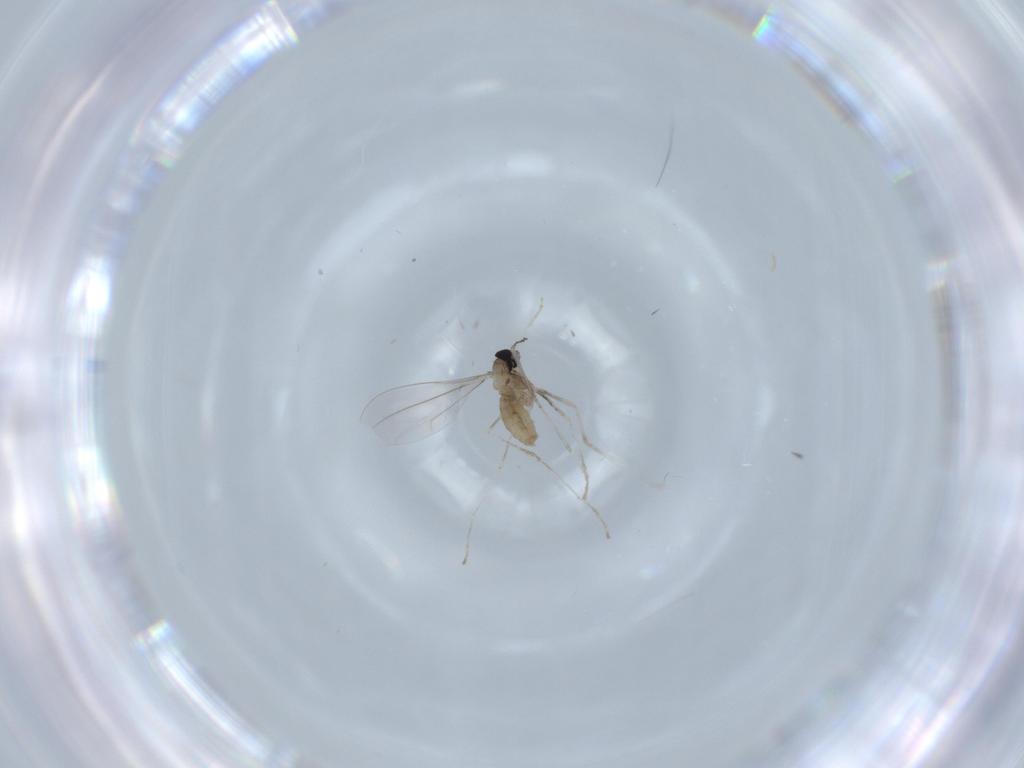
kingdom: Animalia
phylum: Arthropoda
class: Insecta
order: Diptera
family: Cecidomyiidae
